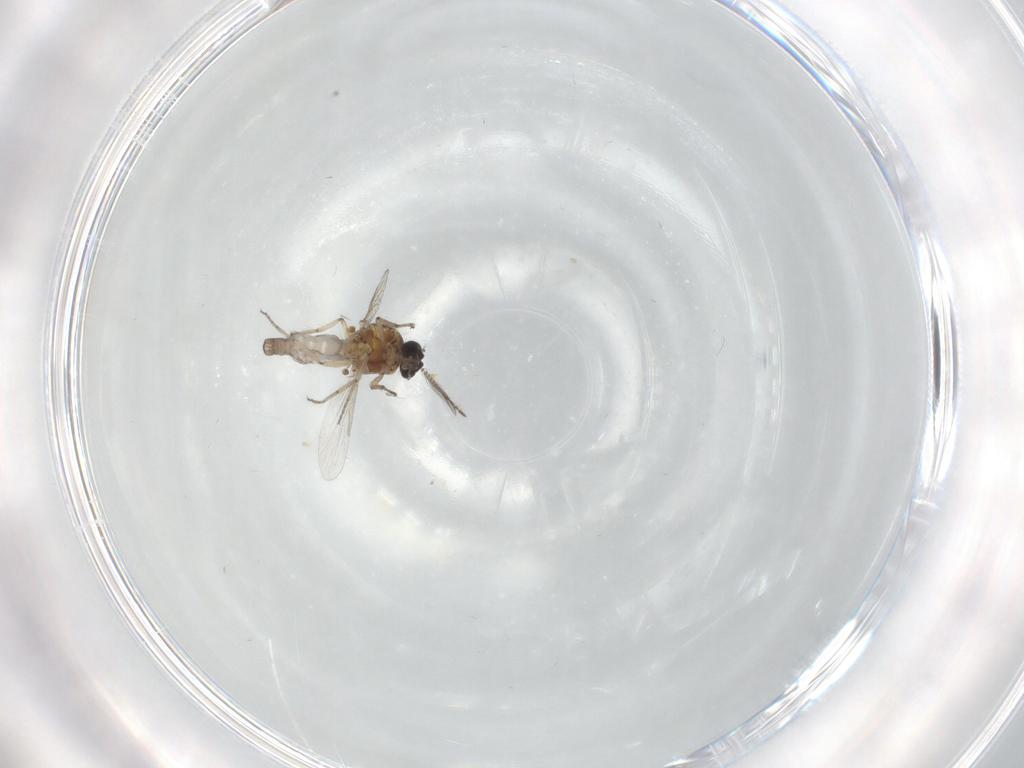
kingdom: Animalia
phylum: Arthropoda
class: Insecta
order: Diptera
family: Ceratopogonidae
